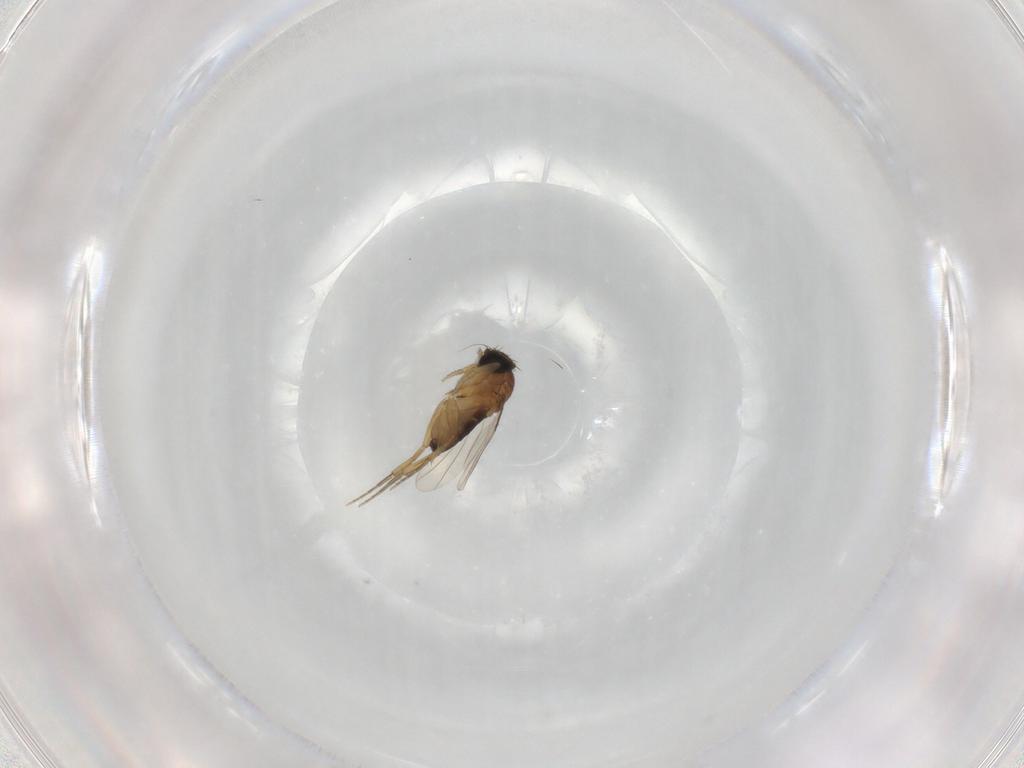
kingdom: Animalia
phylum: Arthropoda
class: Insecta
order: Diptera
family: Phoridae
